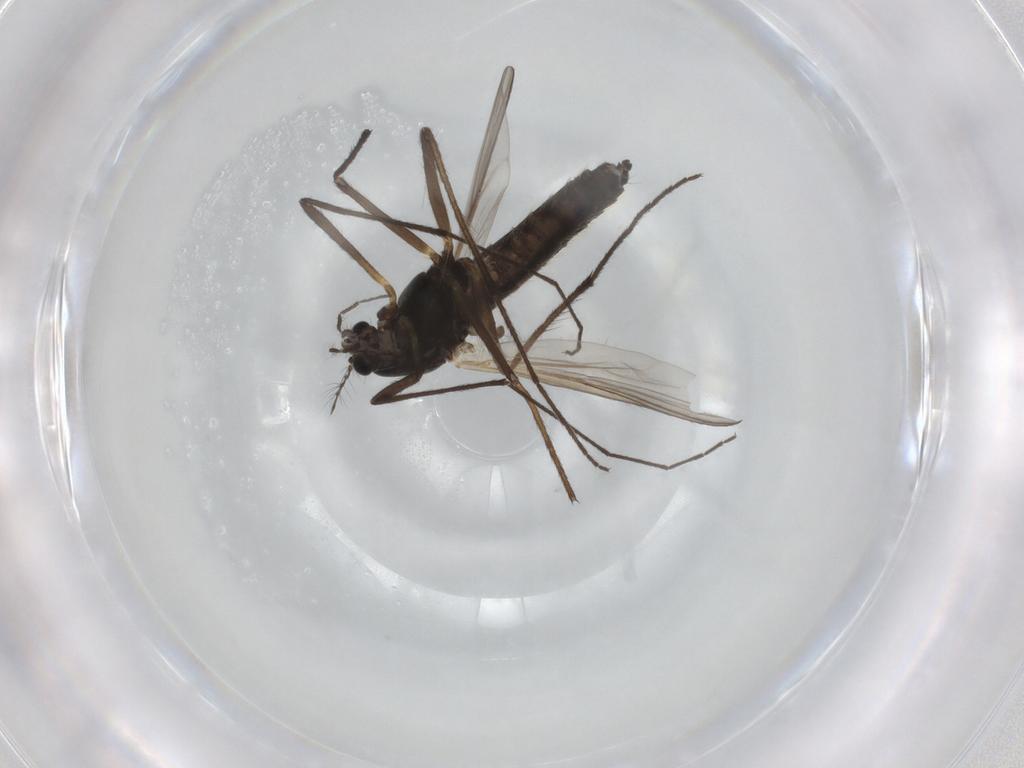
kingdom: Animalia
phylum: Arthropoda
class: Insecta
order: Diptera
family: Chironomidae
